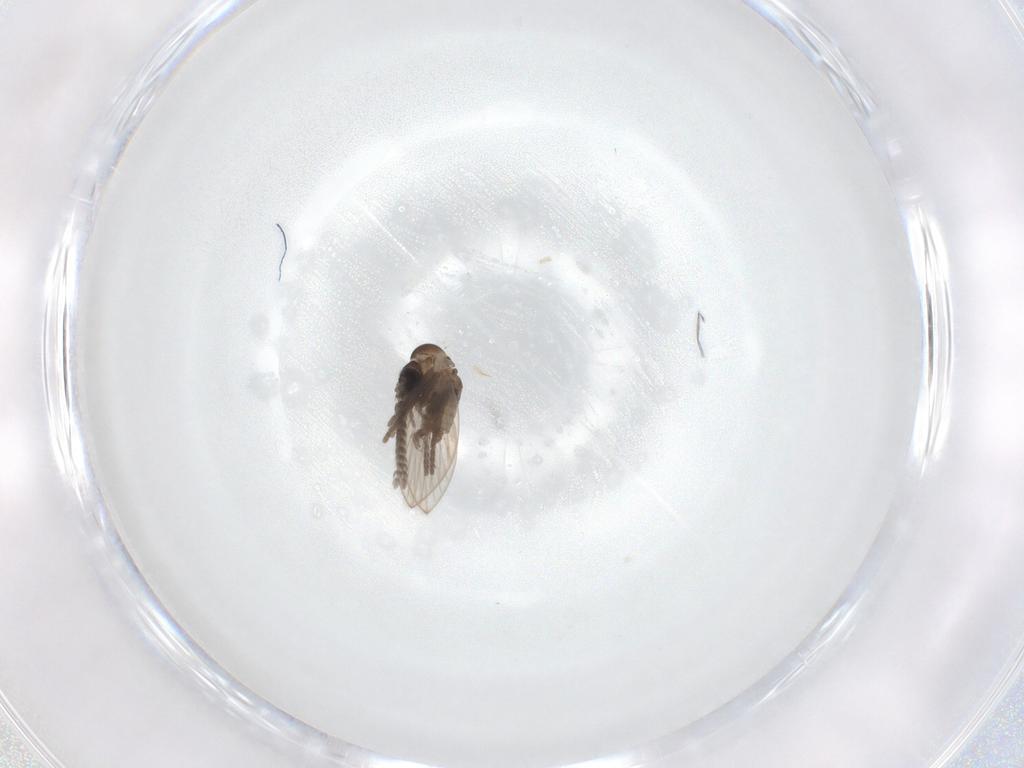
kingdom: Animalia
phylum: Arthropoda
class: Insecta
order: Diptera
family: Psychodidae
